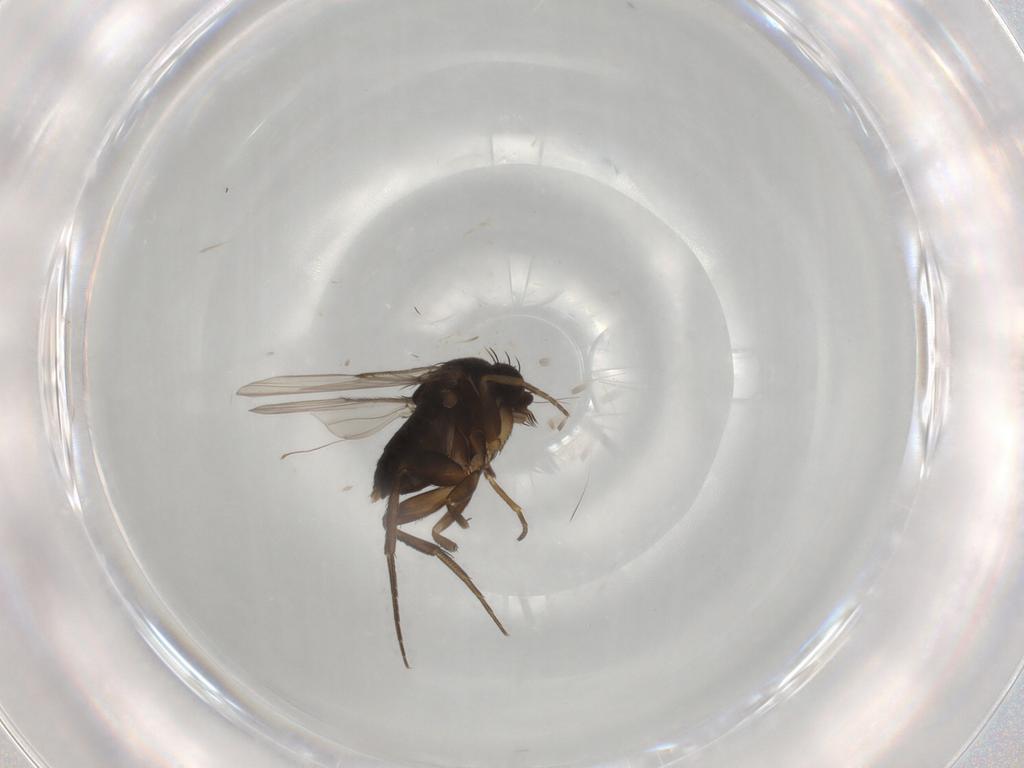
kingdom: Animalia
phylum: Arthropoda
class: Insecta
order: Diptera
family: Phoridae
